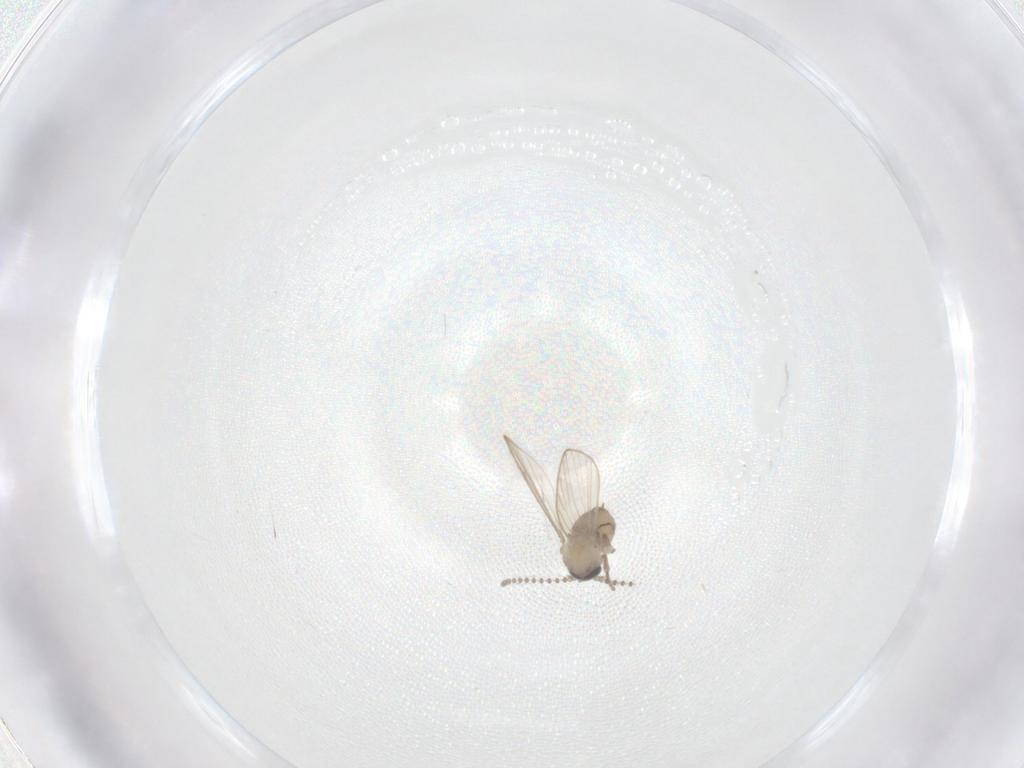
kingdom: Animalia
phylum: Arthropoda
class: Insecta
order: Diptera
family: Psychodidae
